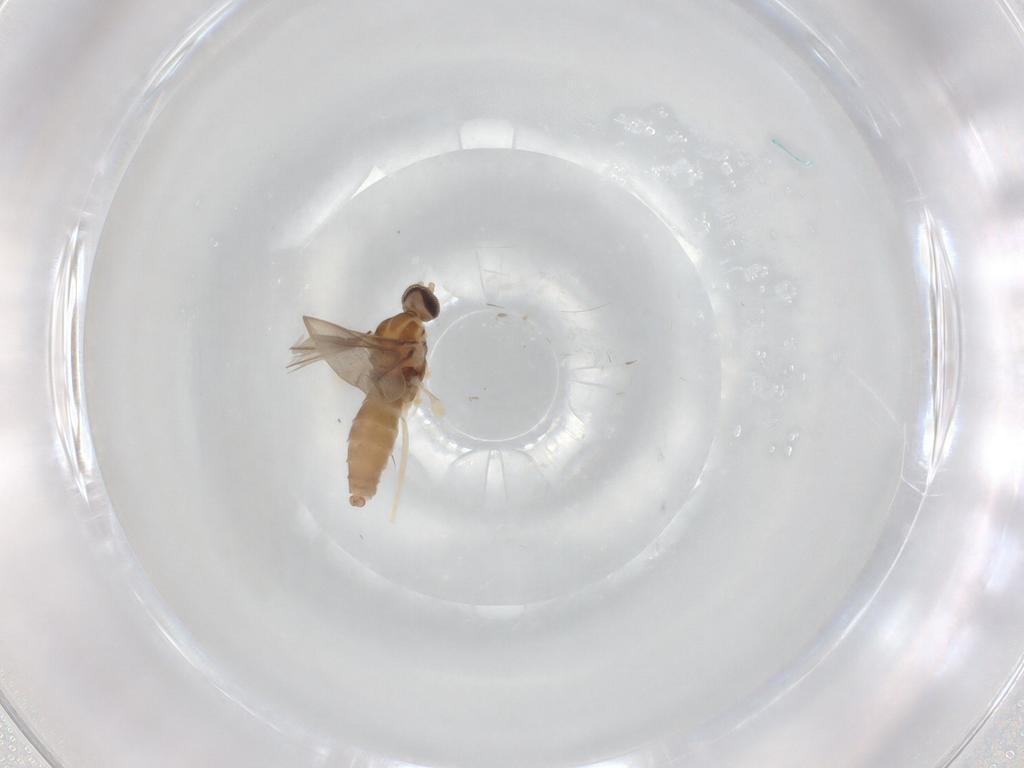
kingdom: Animalia
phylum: Arthropoda
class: Insecta
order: Diptera
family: Cecidomyiidae
